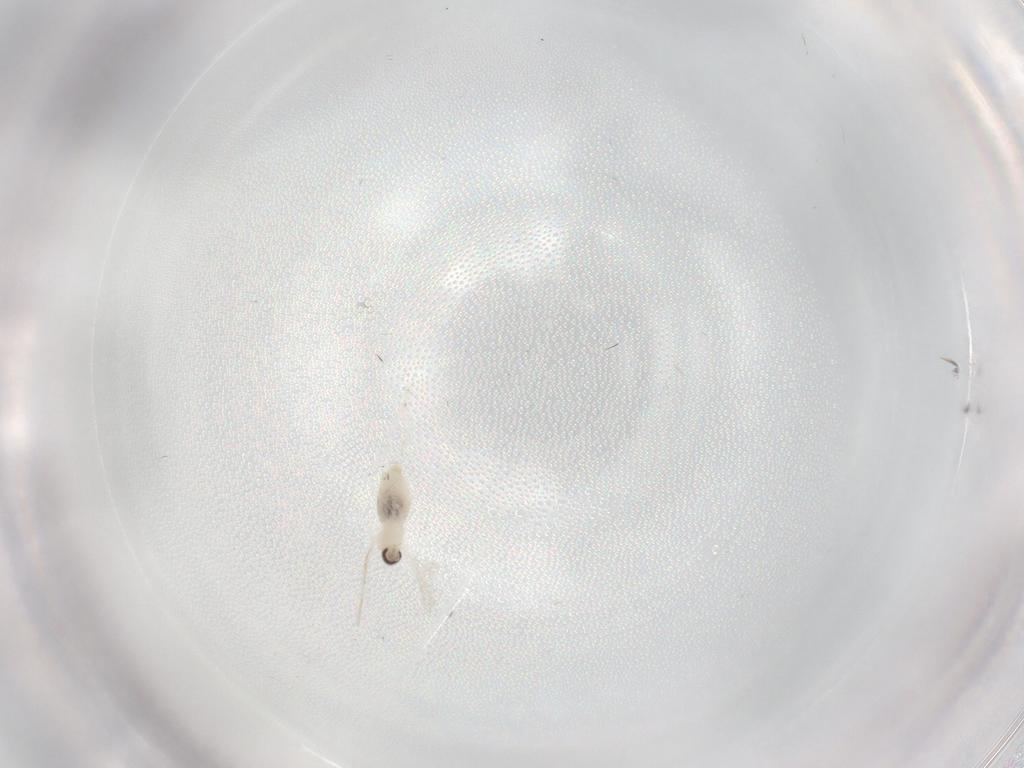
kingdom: Animalia
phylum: Arthropoda
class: Insecta
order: Diptera
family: Cecidomyiidae
